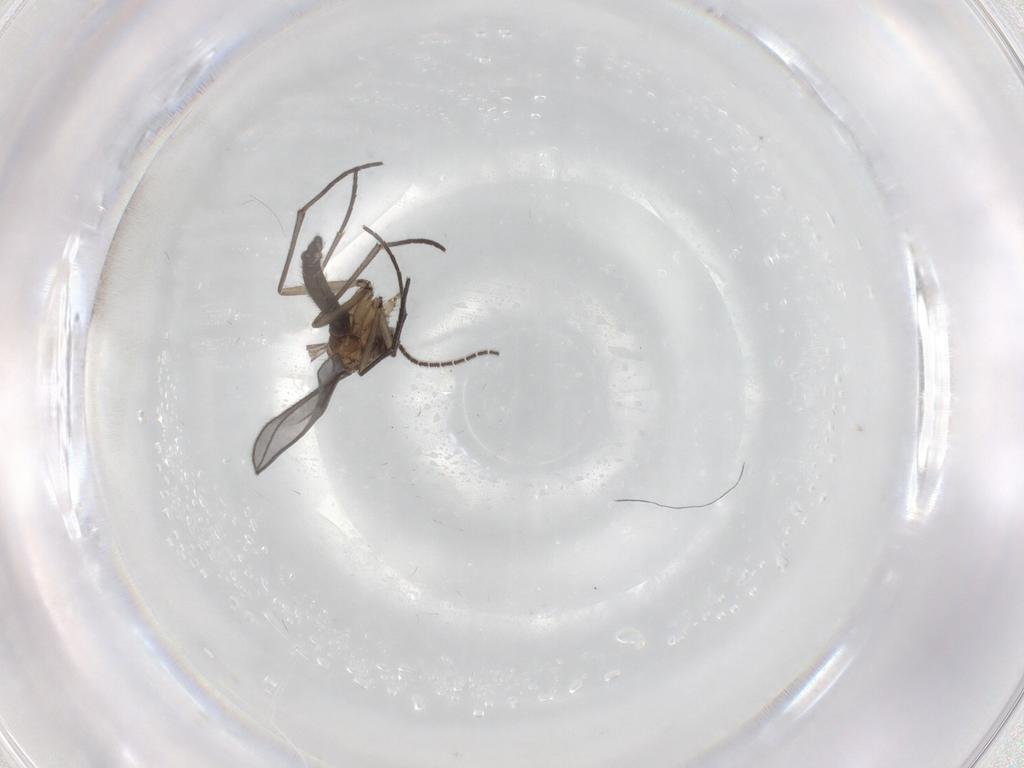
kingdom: Animalia
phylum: Arthropoda
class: Insecta
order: Diptera
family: Sciaridae
